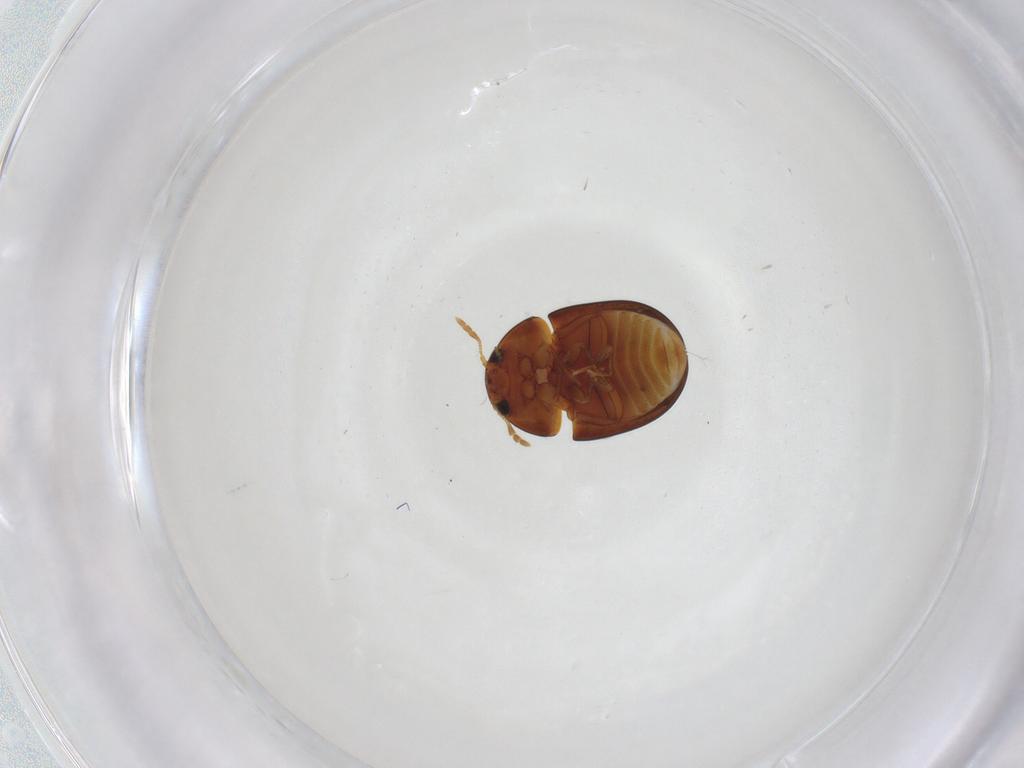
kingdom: Animalia
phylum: Arthropoda
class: Insecta
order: Coleoptera
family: Phalacridae
